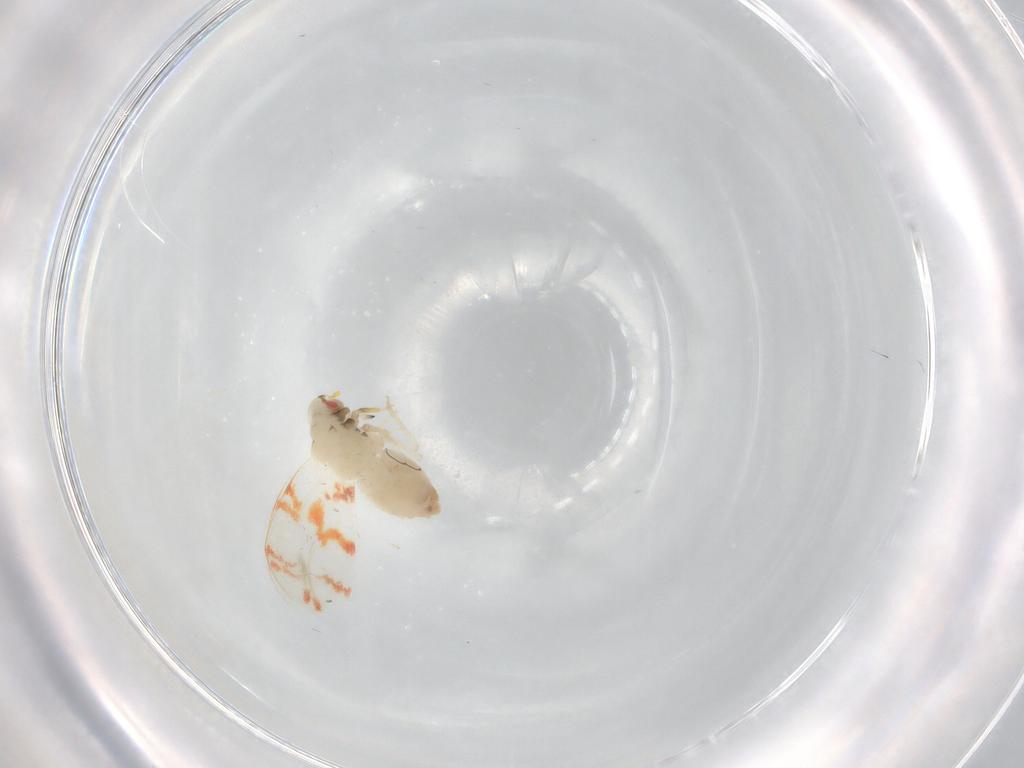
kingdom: Animalia
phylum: Arthropoda
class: Insecta
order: Hemiptera
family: Aleyrodidae
